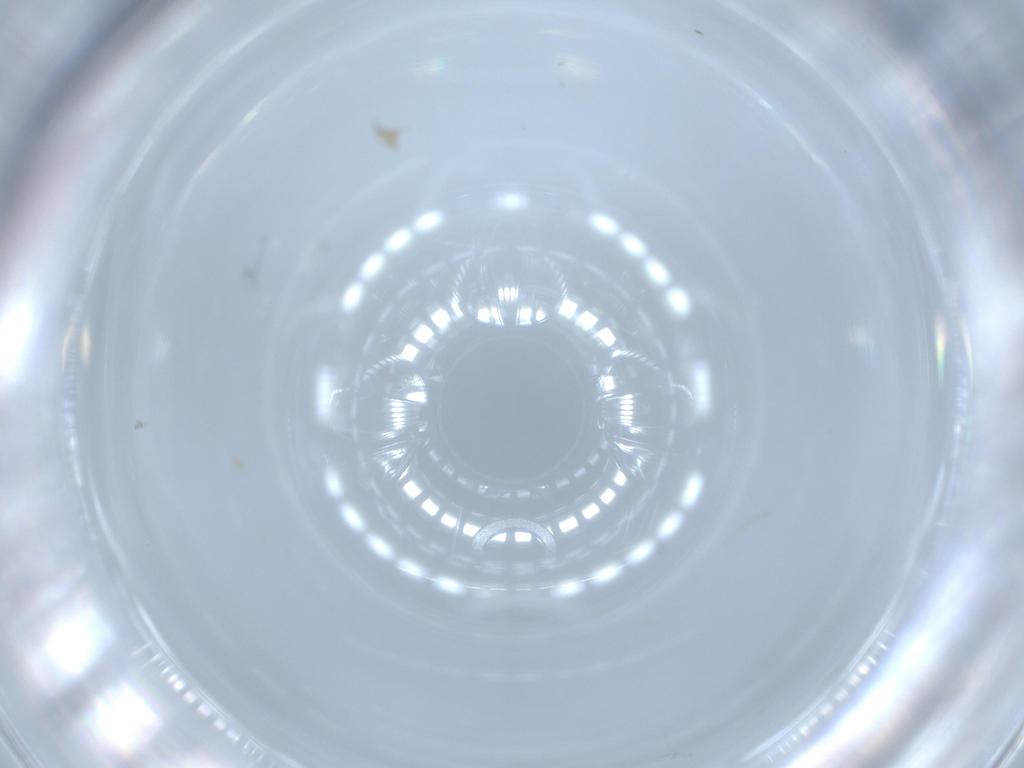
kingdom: Animalia
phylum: Arthropoda
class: Insecta
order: Diptera
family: Cecidomyiidae
